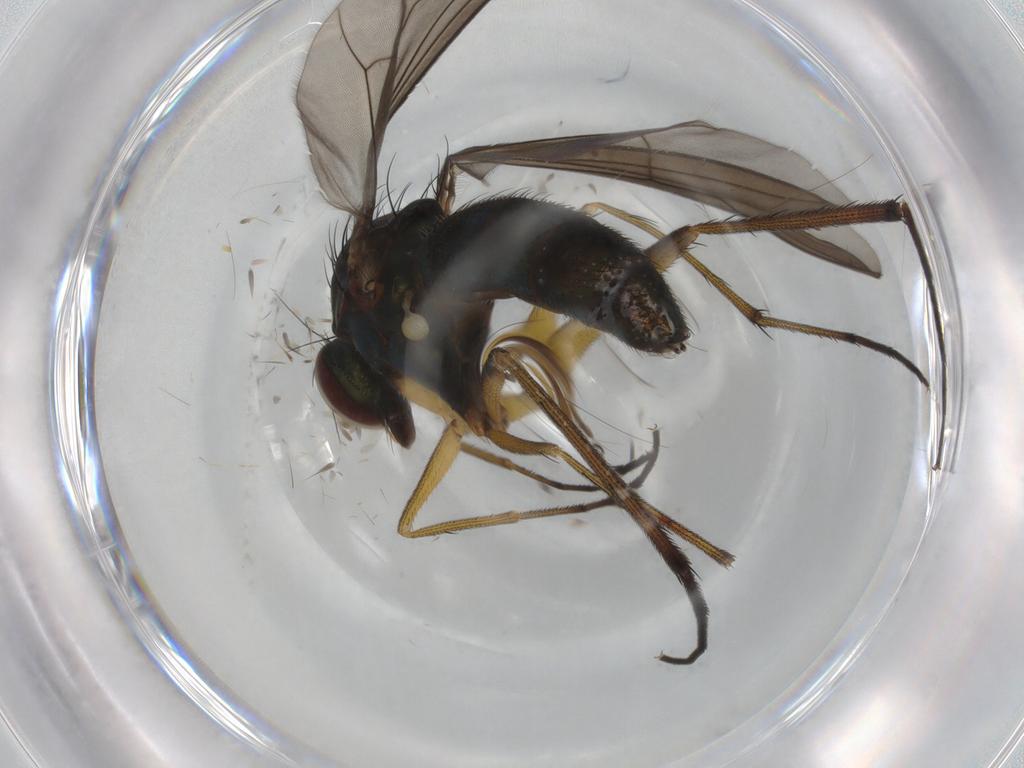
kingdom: Animalia
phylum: Arthropoda
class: Insecta
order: Diptera
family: Dolichopodidae
